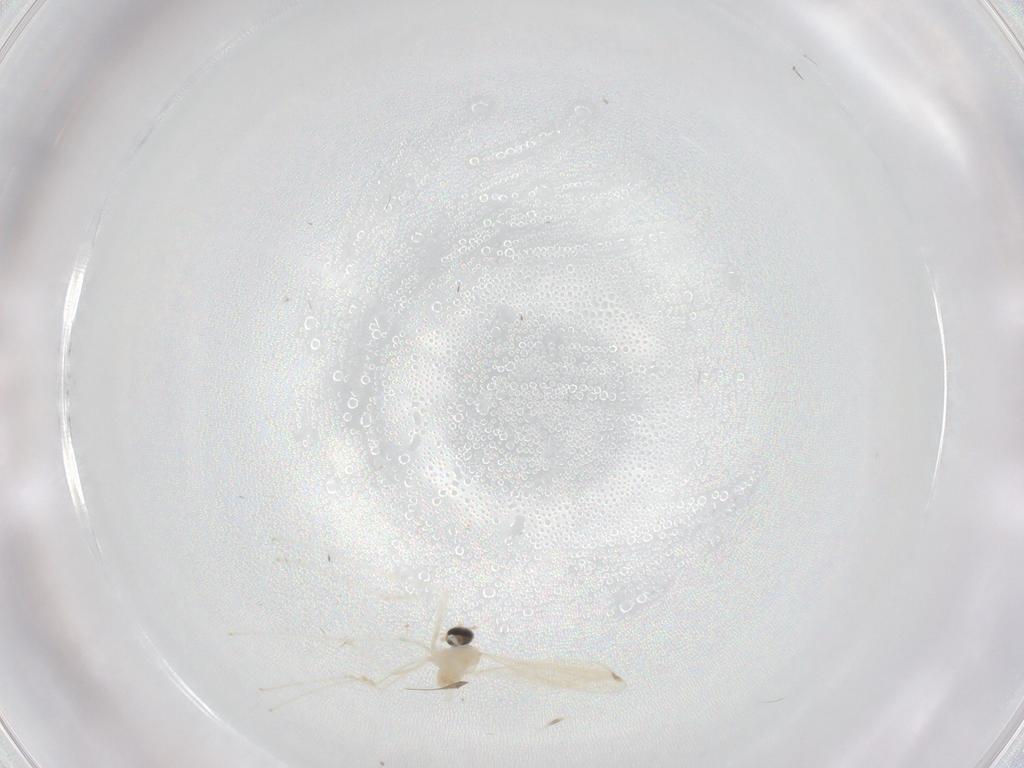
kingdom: Animalia
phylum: Arthropoda
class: Insecta
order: Diptera
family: Cecidomyiidae
